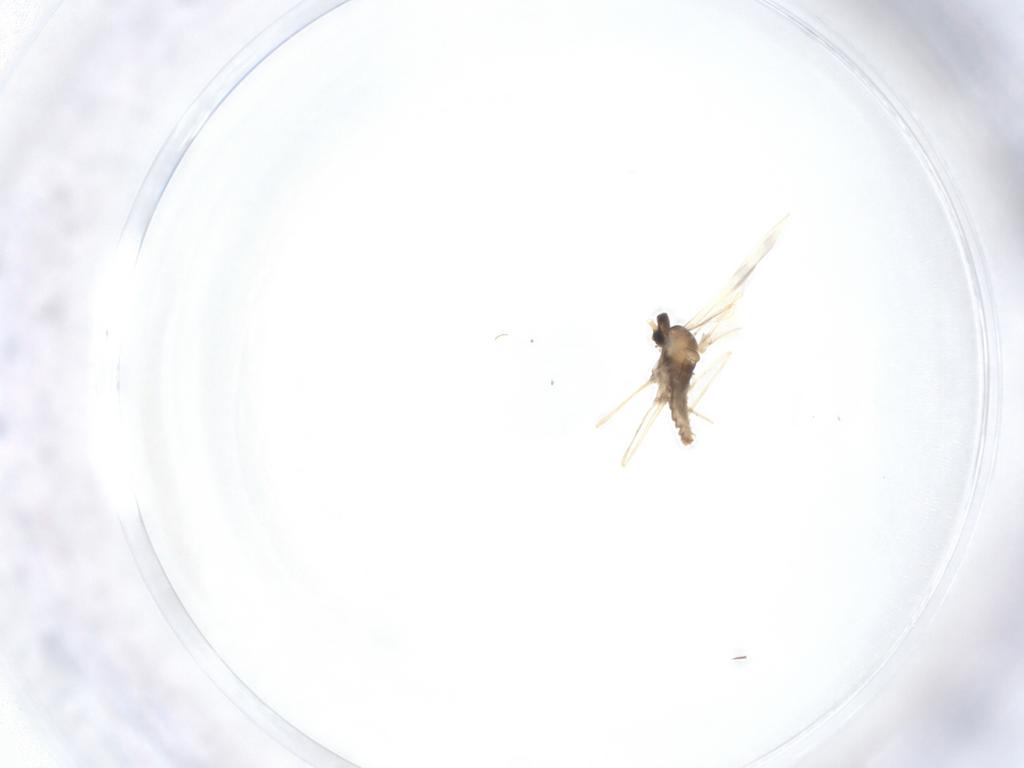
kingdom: Animalia
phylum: Arthropoda
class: Insecta
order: Diptera
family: Cecidomyiidae
